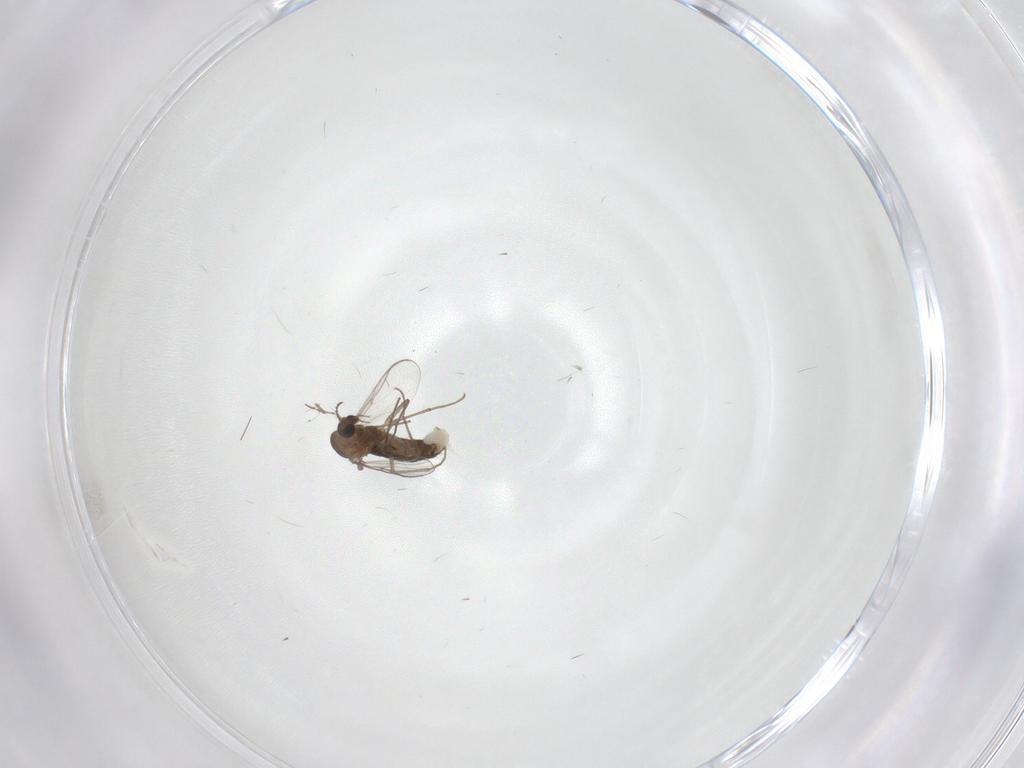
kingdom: Animalia
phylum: Arthropoda
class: Insecta
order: Diptera
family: Chironomidae
